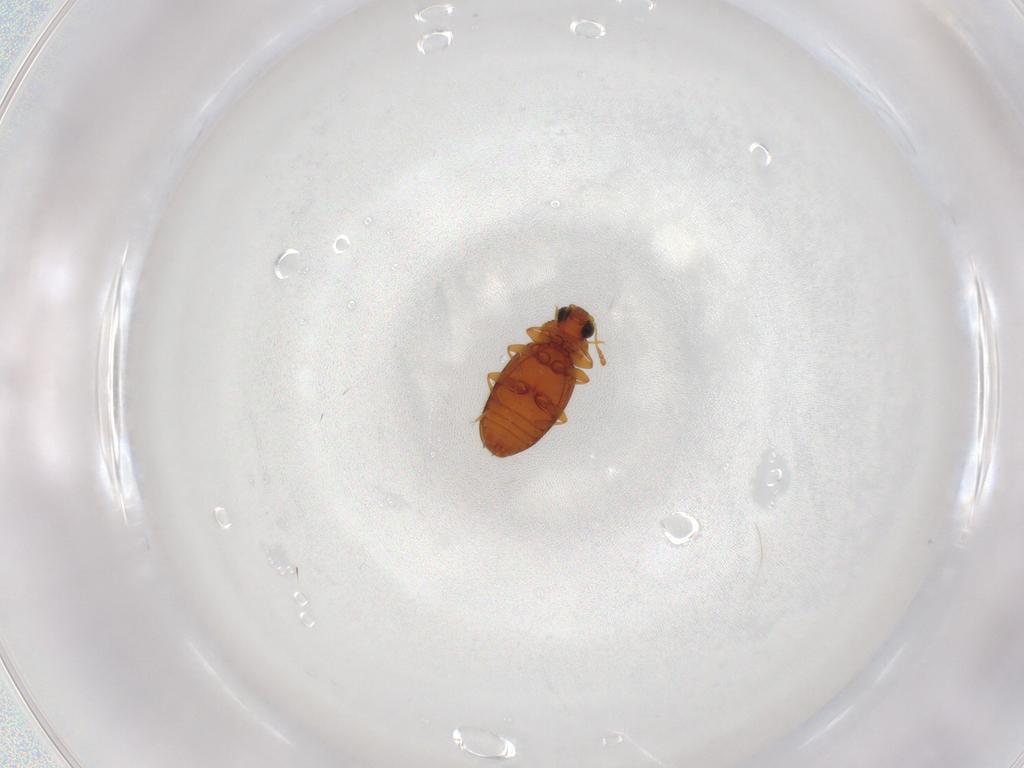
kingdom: Animalia
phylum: Arthropoda
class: Insecta
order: Coleoptera
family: Latridiidae
